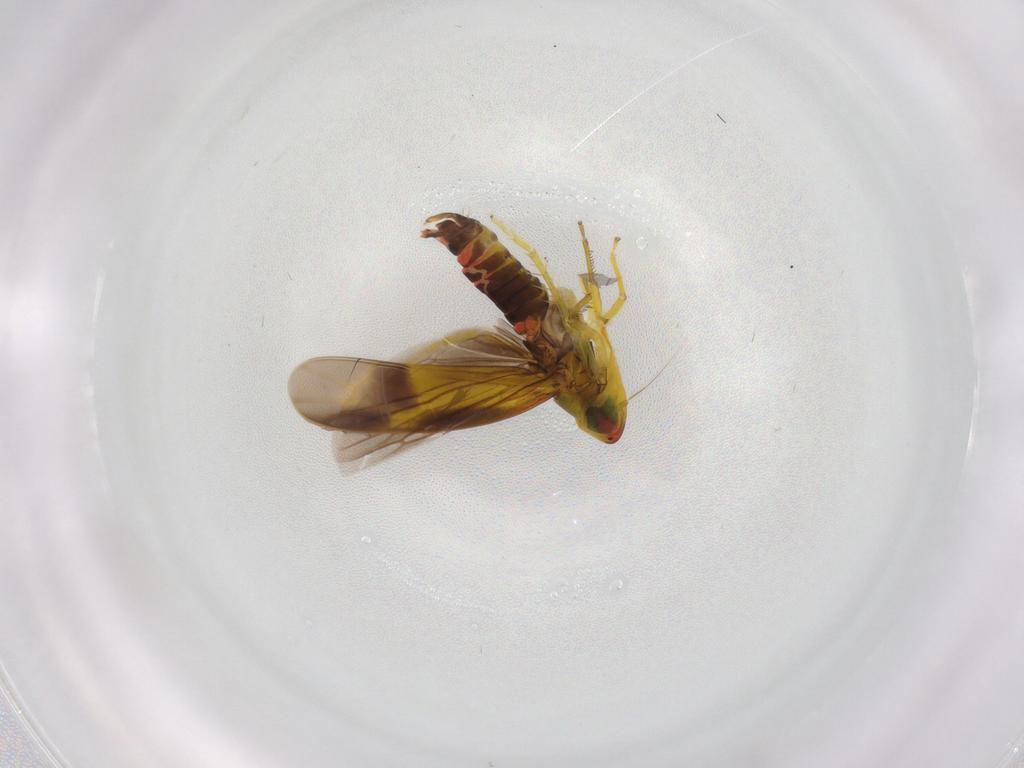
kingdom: Animalia
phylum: Arthropoda
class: Insecta
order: Hemiptera
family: Cicadellidae
